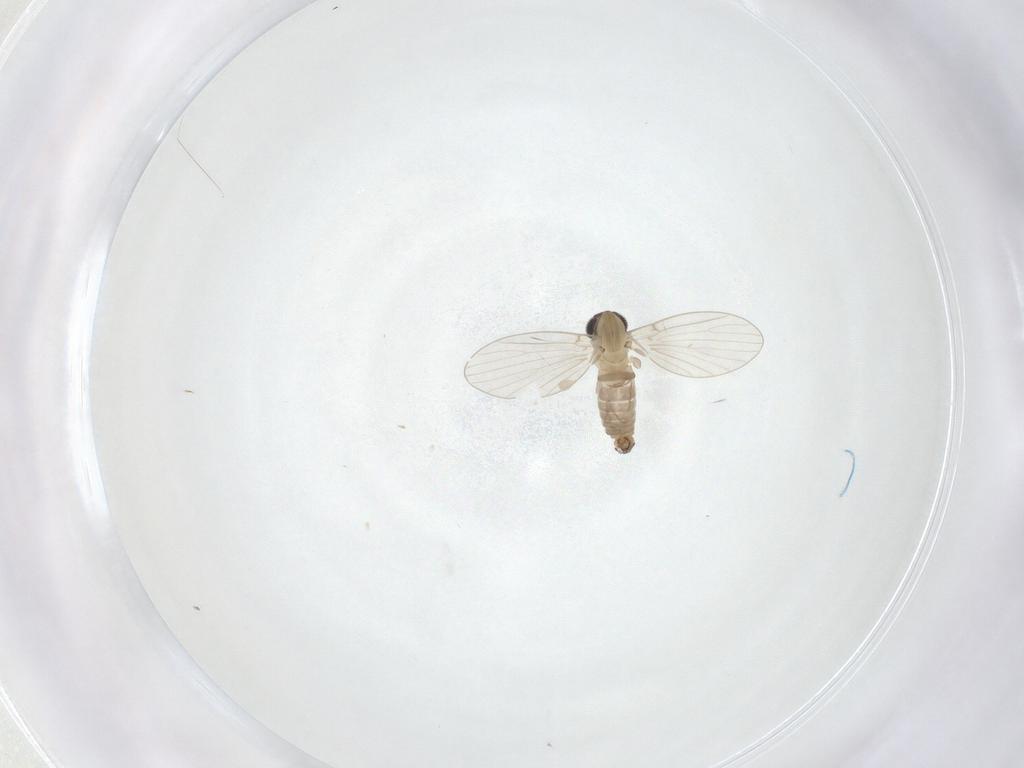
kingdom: Animalia
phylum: Arthropoda
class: Insecta
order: Diptera
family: Psychodidae
